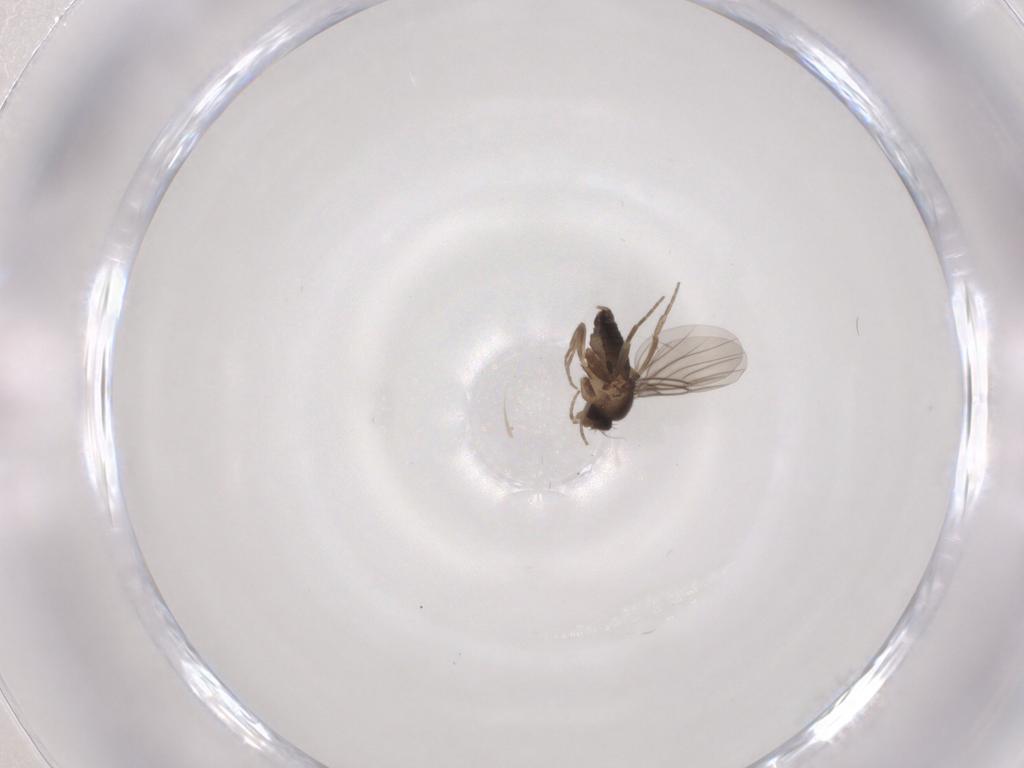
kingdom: Animalia
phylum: Arthropoda
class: Insecta
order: Diptera
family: Phoridae
